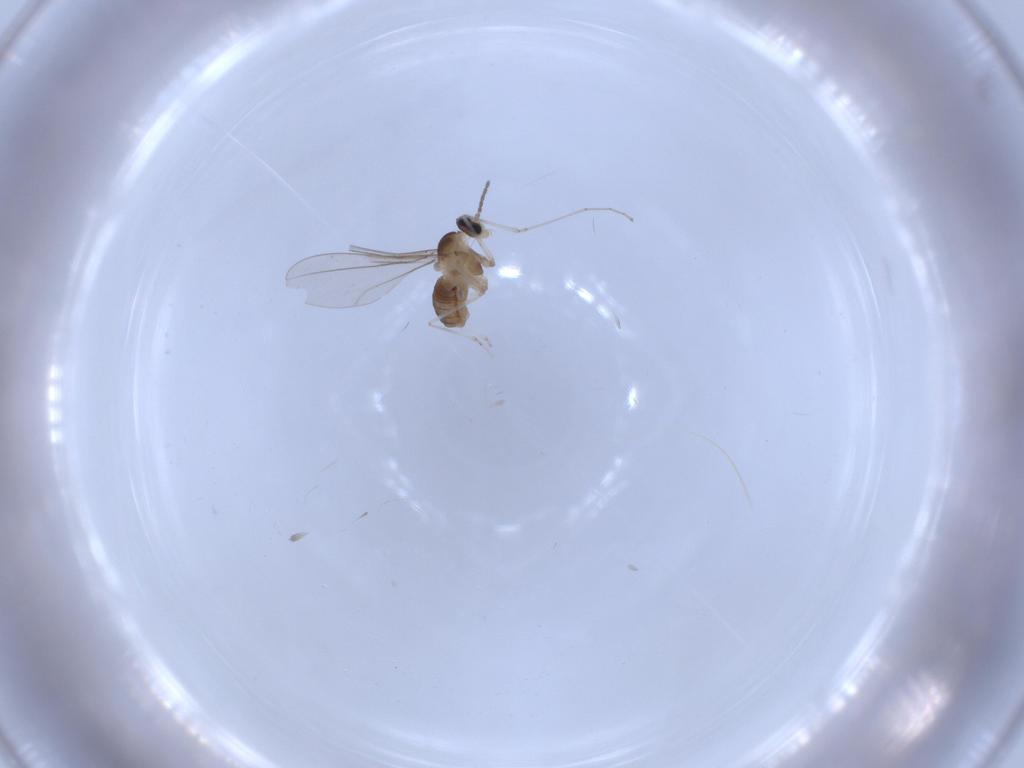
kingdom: Animalia
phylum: Arthropoda
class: Insecta
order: Diptera
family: Cecidomyiidae
